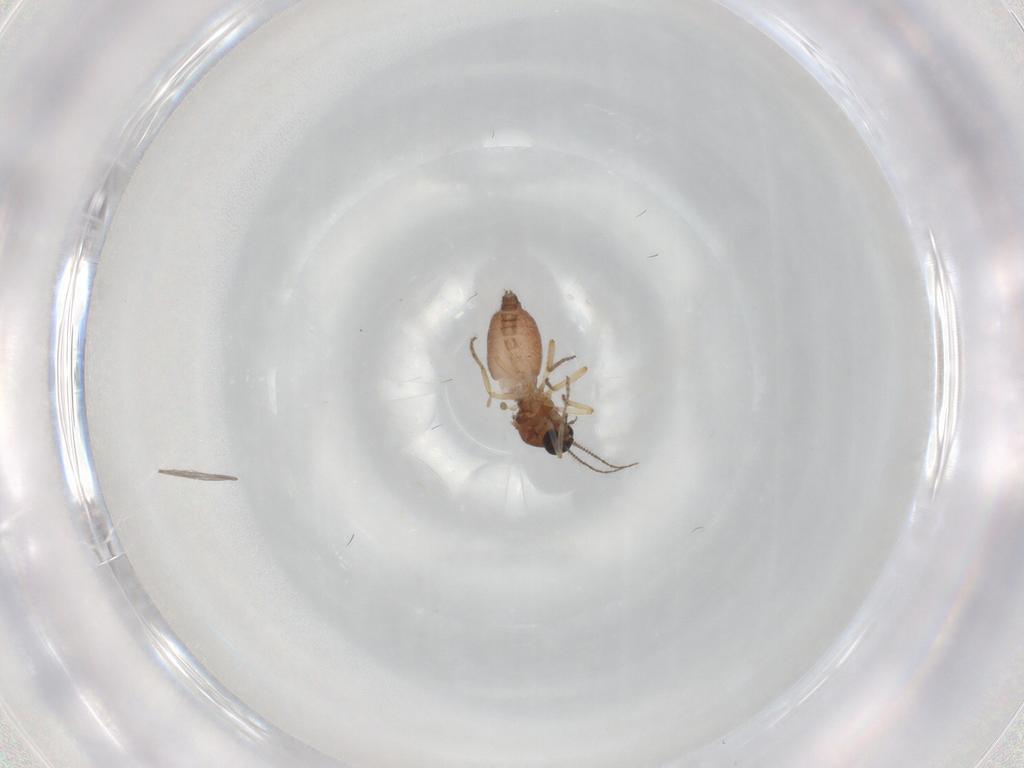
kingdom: Animalia
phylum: Arthropoda
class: Insecta
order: Diptera
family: Ceratopogonidae
